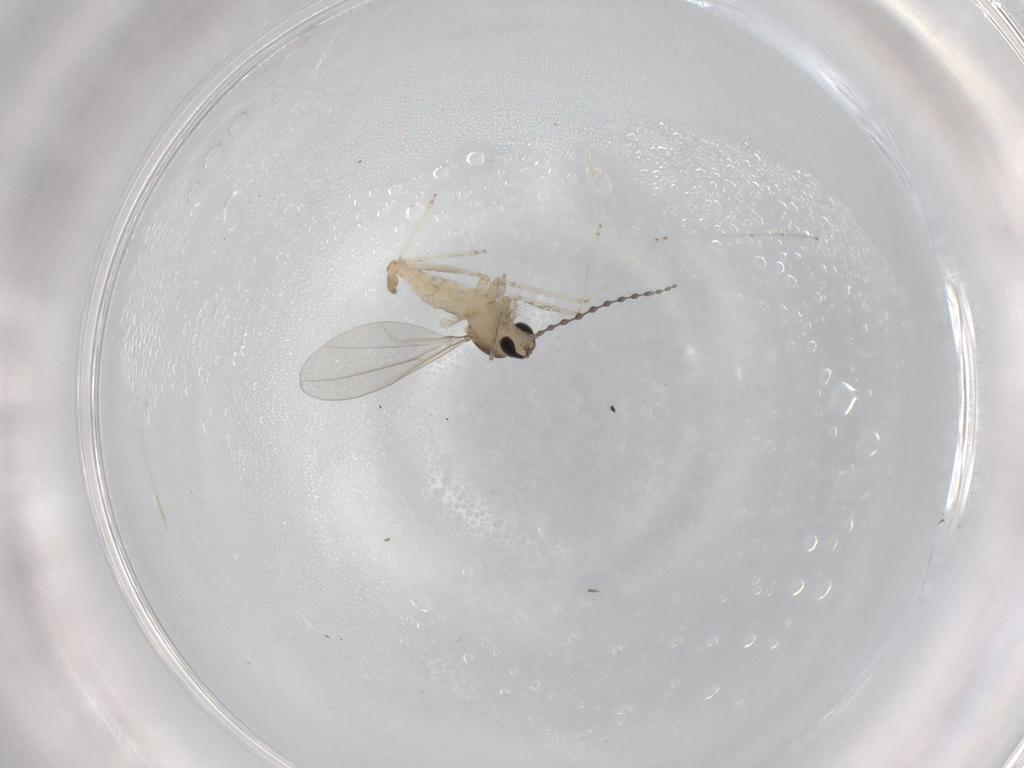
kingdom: Animalia
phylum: Arthropoda
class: Insecta
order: Diptera
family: Cecidomyiidae
